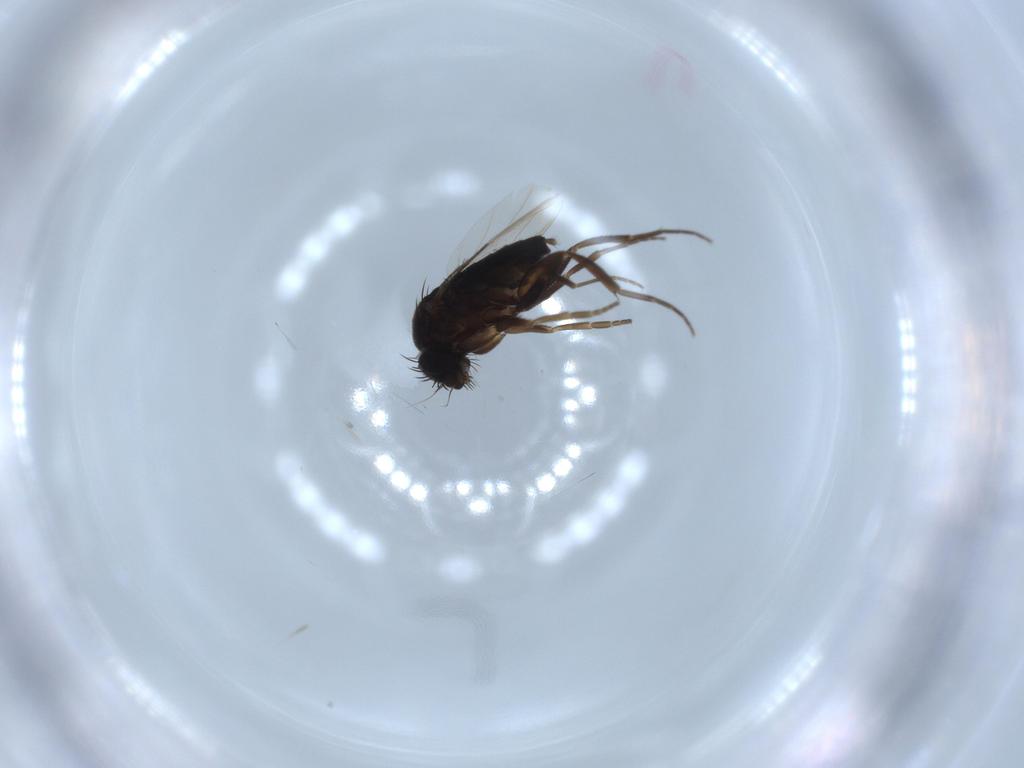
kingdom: Animalia
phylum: Arthropoda
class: Insecta
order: Diptera
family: Phoridae
